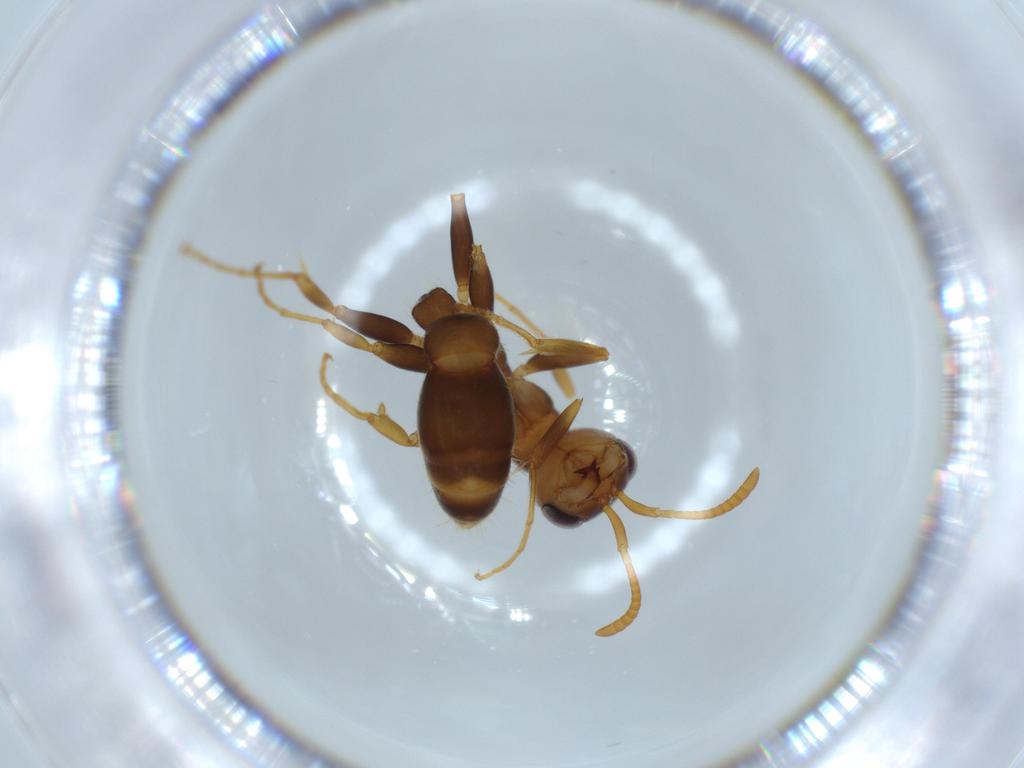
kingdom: Animalia
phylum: Arthropoda
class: Insecta
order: Hymenoptera
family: Formicidae
